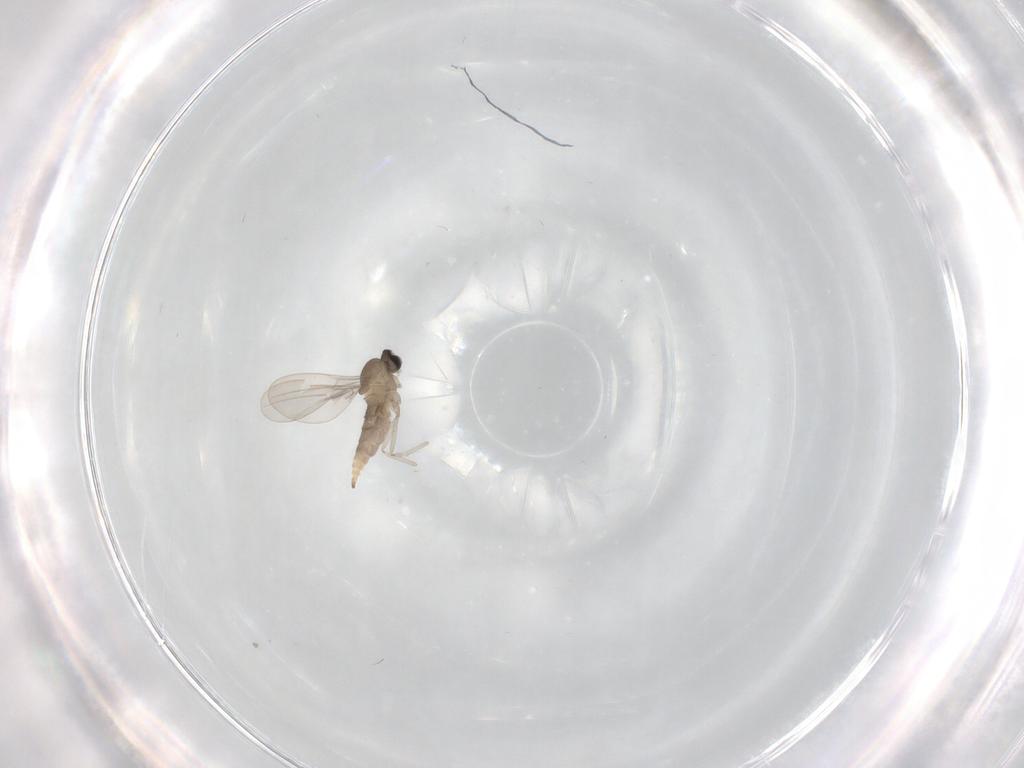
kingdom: Animalia
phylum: Arthropoda
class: Insecta
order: Diptera
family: Cecidomyiidae
